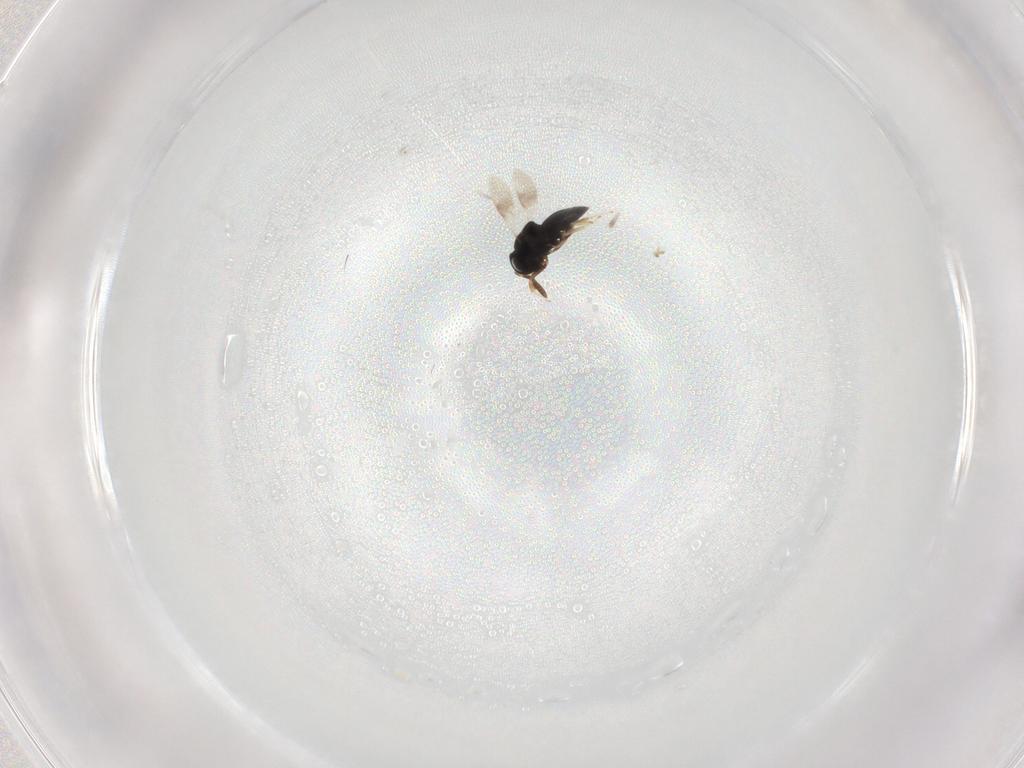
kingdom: Animalia
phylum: Arthropoda
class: Insecta
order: Hymenoptera
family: Scelionidae
